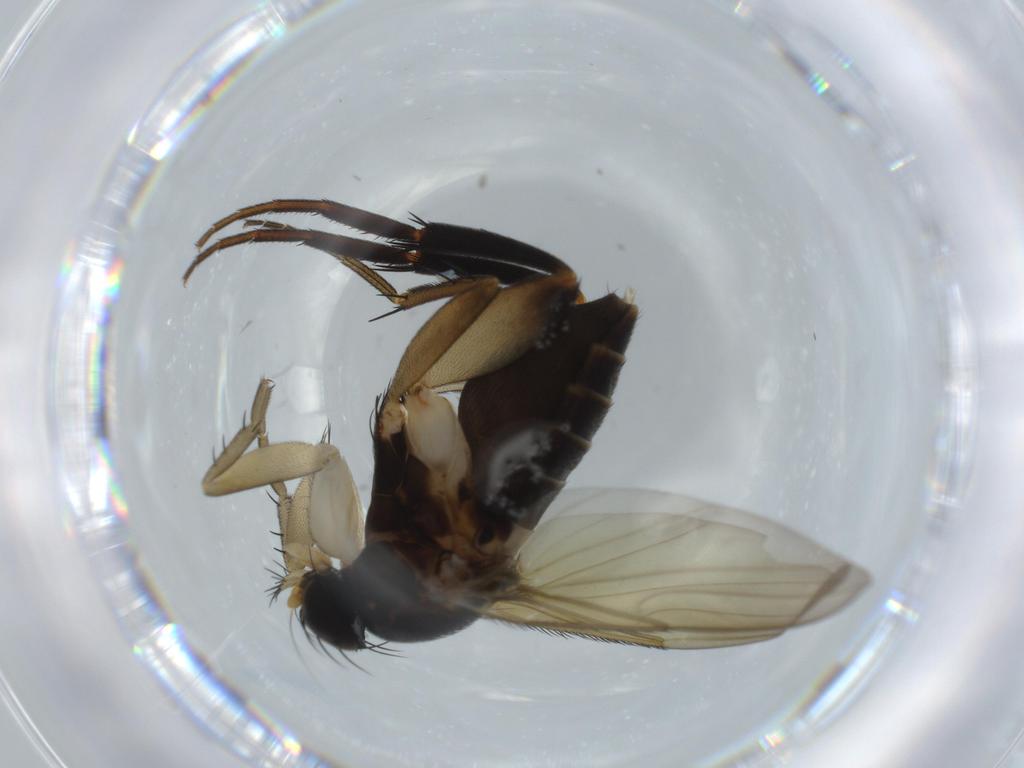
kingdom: Animalia
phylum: Arthropoda
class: Insecta
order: Diptera
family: Phoridae
